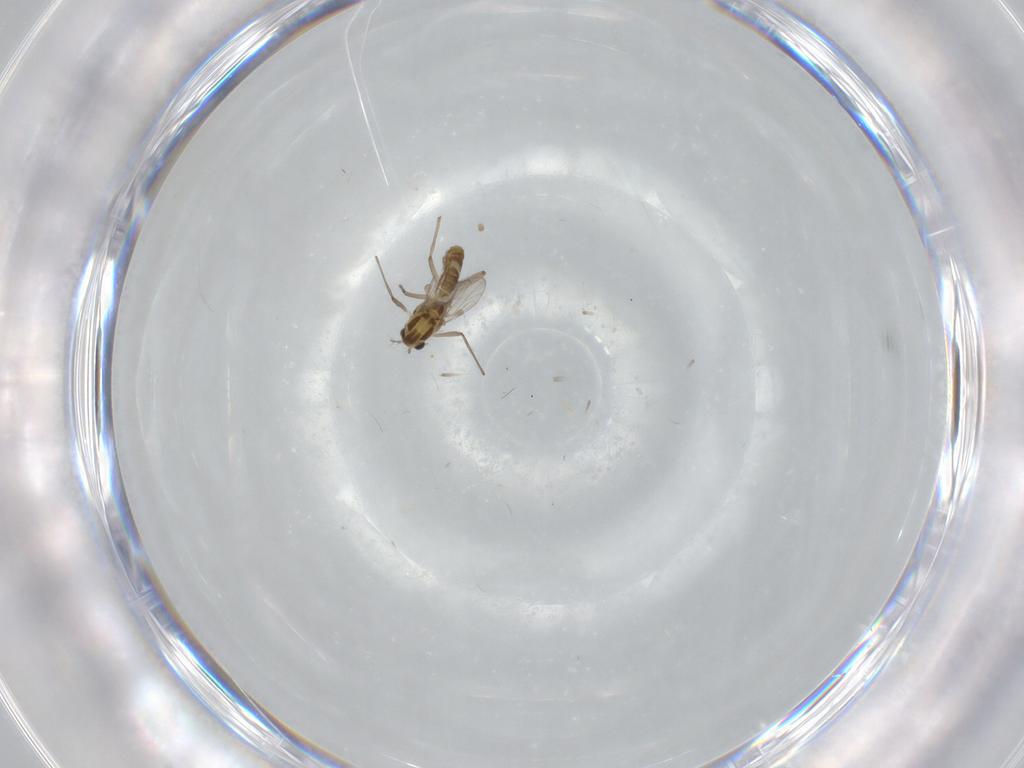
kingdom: Animalia
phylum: Arthropoda
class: Insecta
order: Diptera
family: Chironomidae
